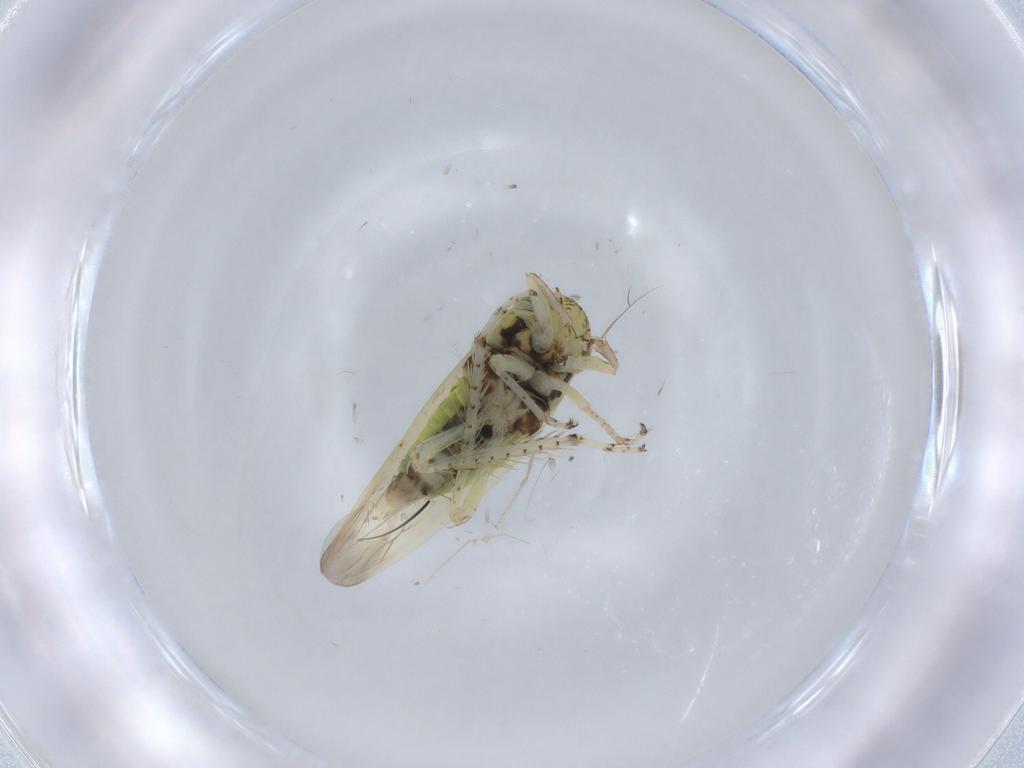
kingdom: Animalia
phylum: Arthropoda
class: Insecta
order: Hemiptera
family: Cicadellidae
